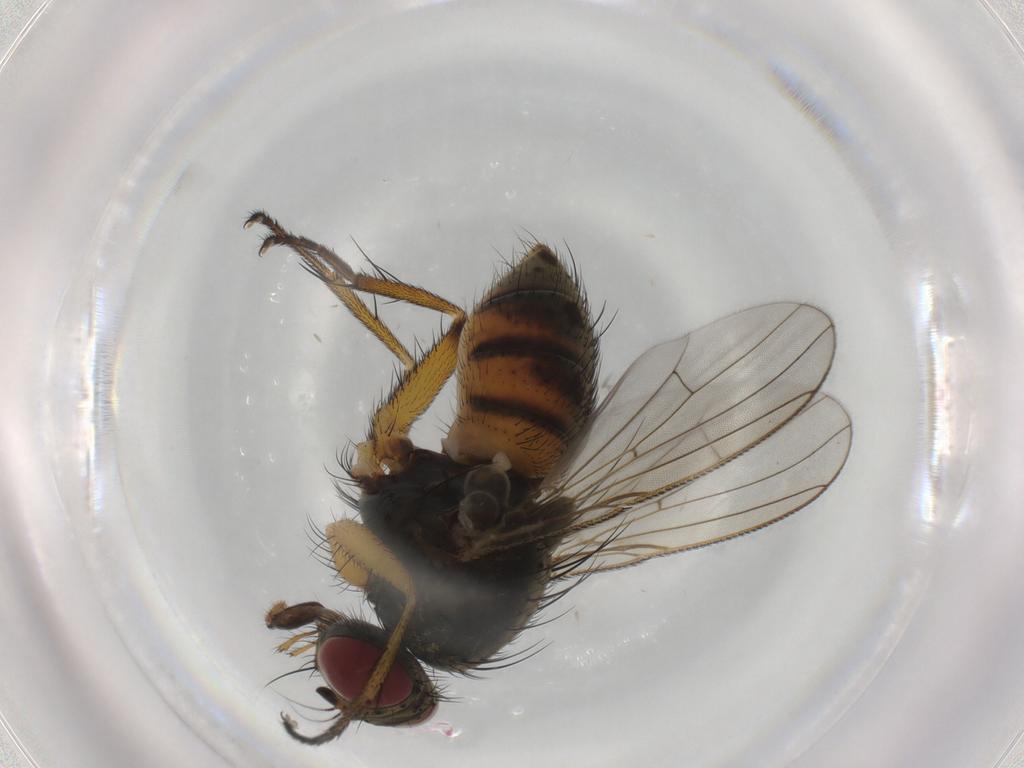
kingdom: Animalia
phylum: Arthropoda
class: Insecta
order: Diptera
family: Muscidae
